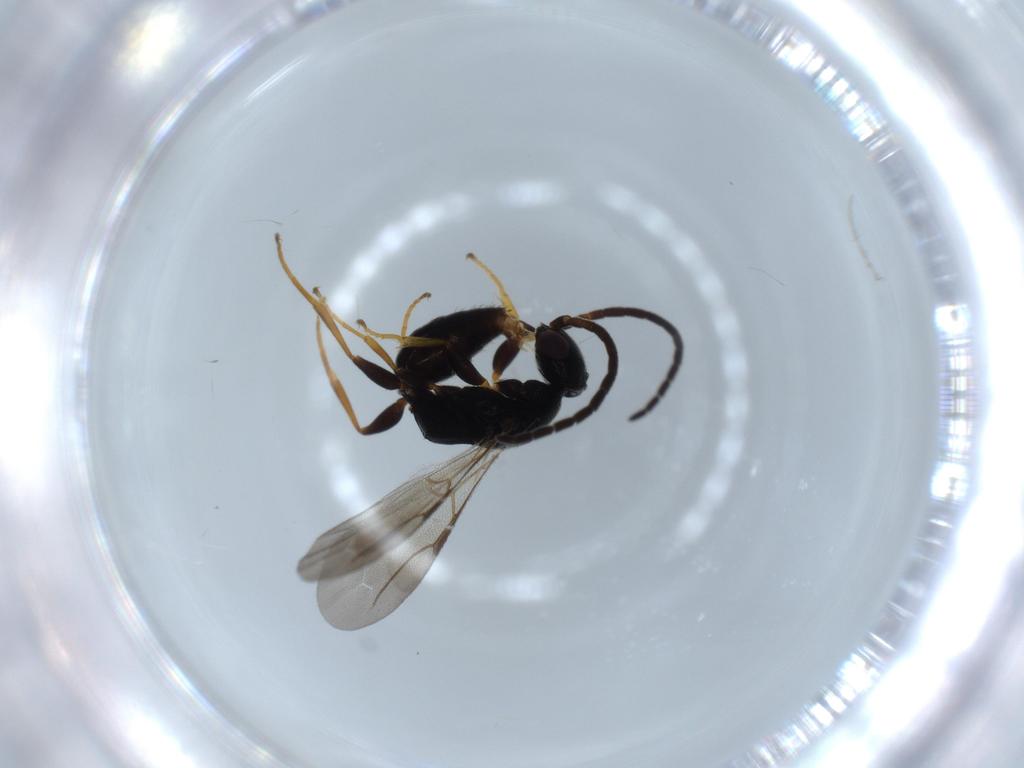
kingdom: Animalia
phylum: Arthropoda
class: Insecta
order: Hymenoptera
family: Bethylidae
